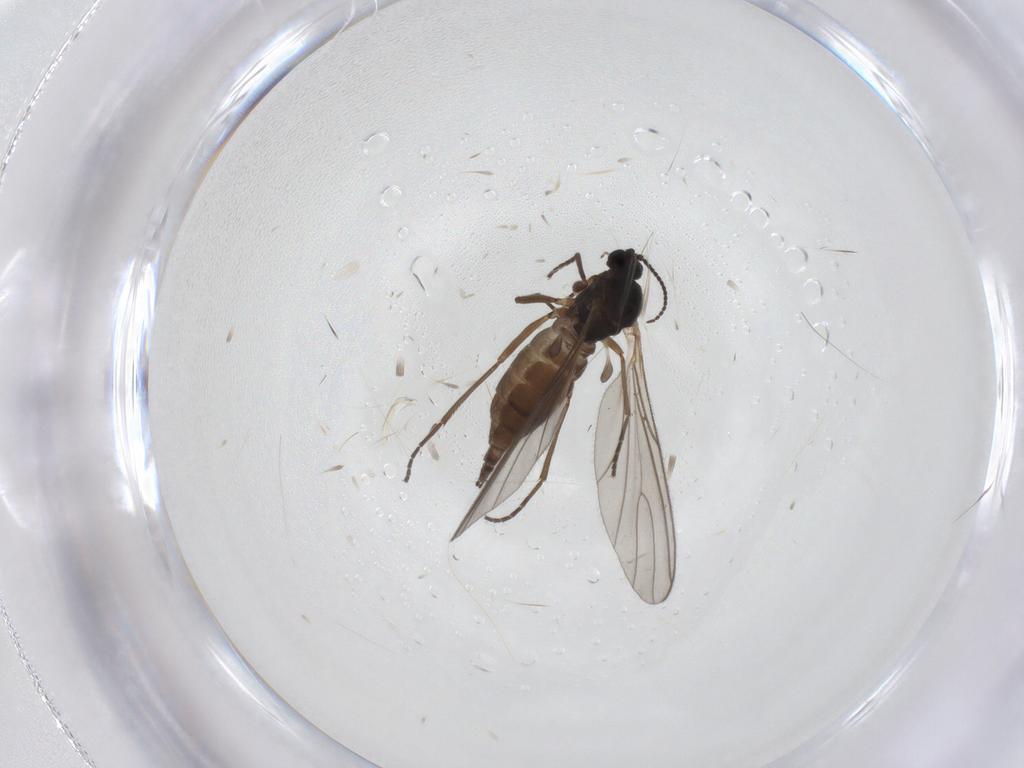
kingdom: Animalia
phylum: Arthropoda
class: Insecta
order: Diptera
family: Sciaridae
